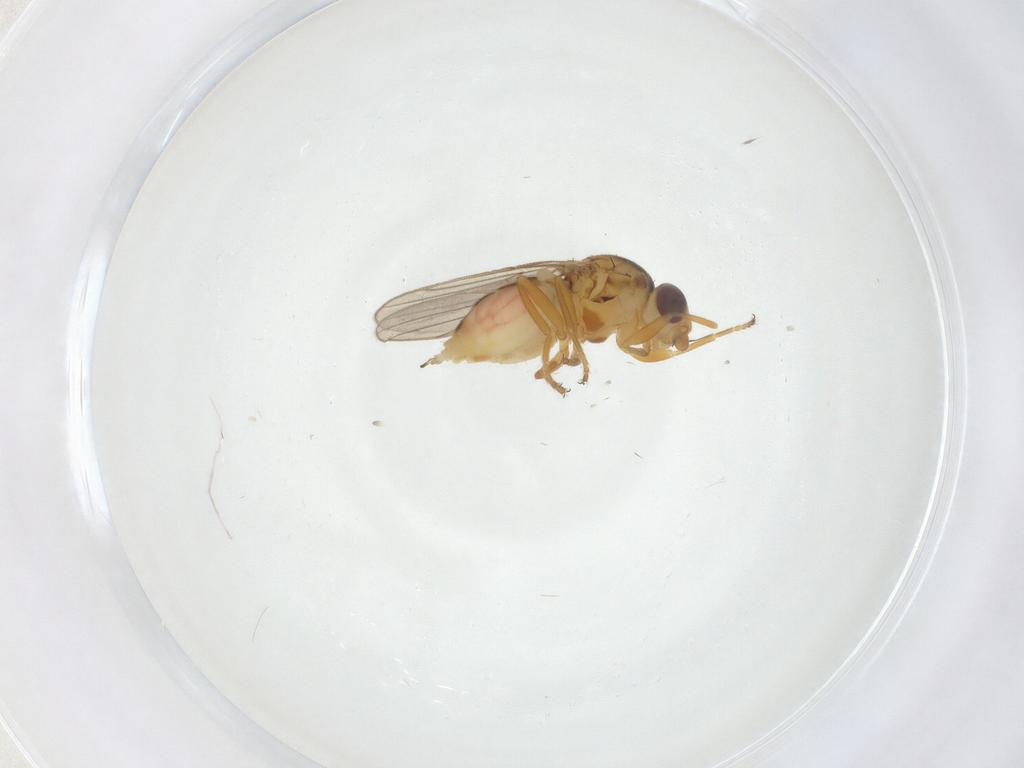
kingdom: Animalia
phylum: Arthropoda
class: Insecta
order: Diptera
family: Chloropidae
